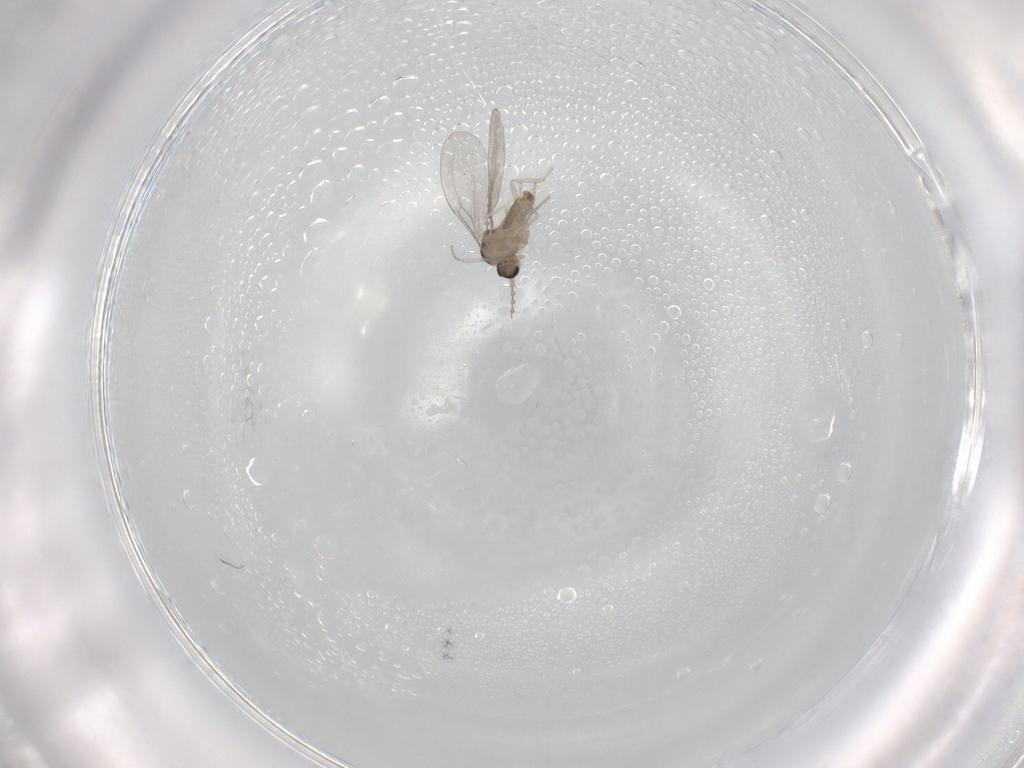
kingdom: Animalia
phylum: Arthropoda
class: Insecta
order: Diptera
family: Cecidomyiidae
